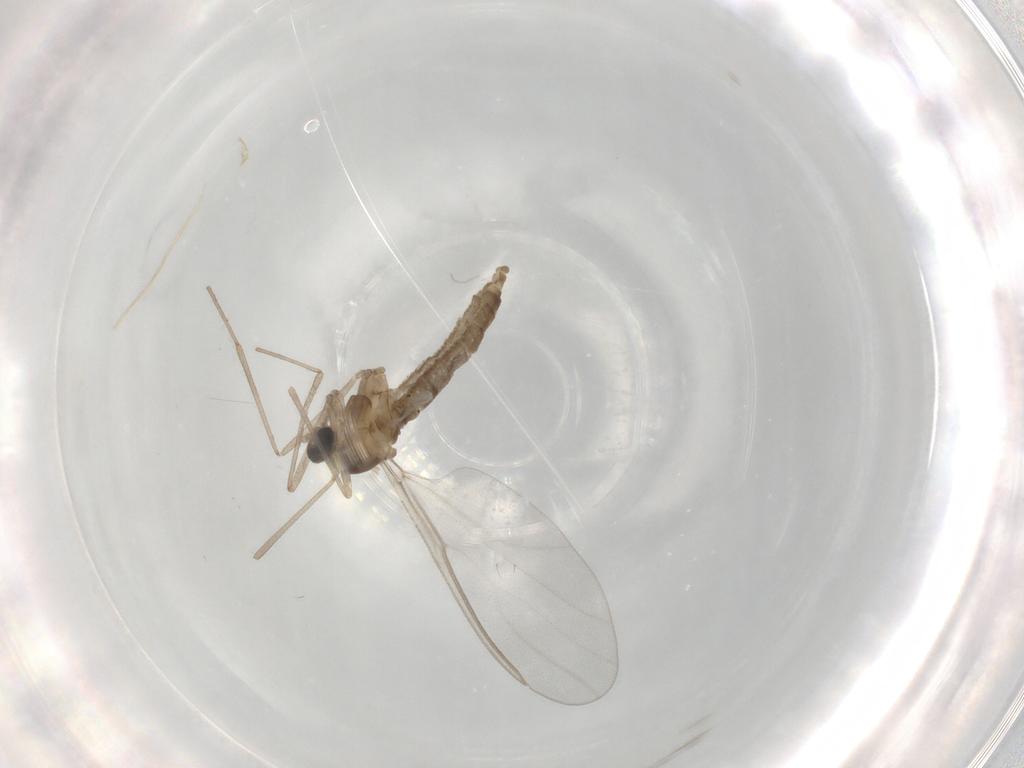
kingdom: Animalia
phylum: Arthropoda
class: Insecta
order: Diptera
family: Cecidomyiidae
